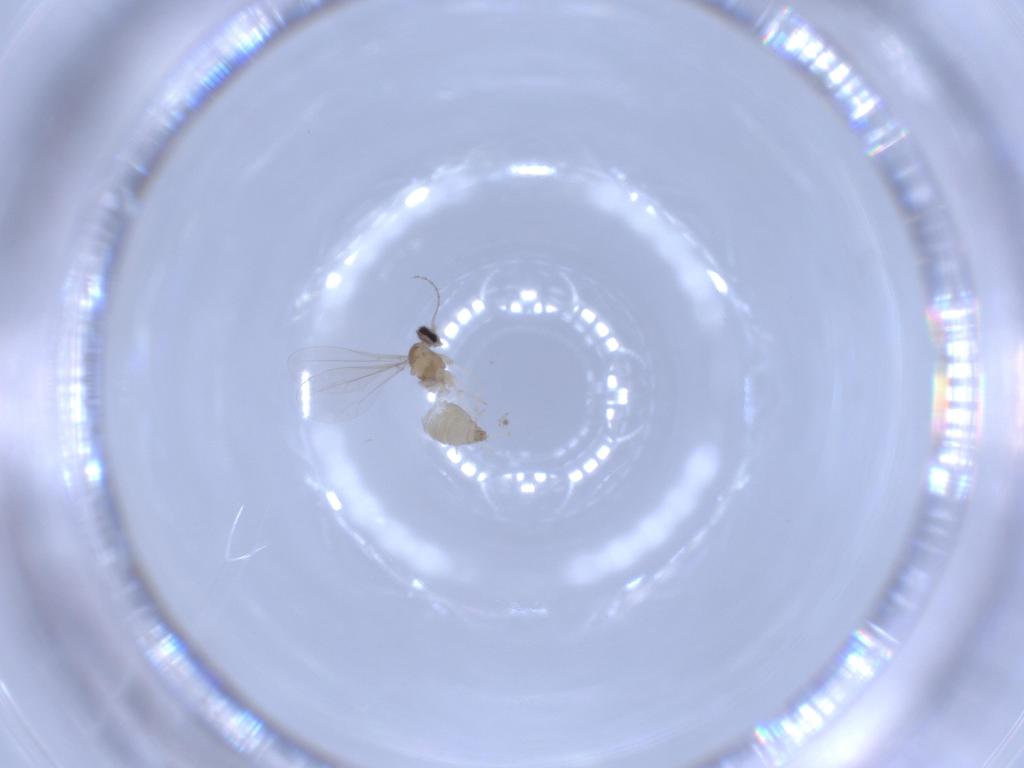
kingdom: Animalia
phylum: Arthropoda
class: Insecta
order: Diptera
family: Cecidomyiidae
